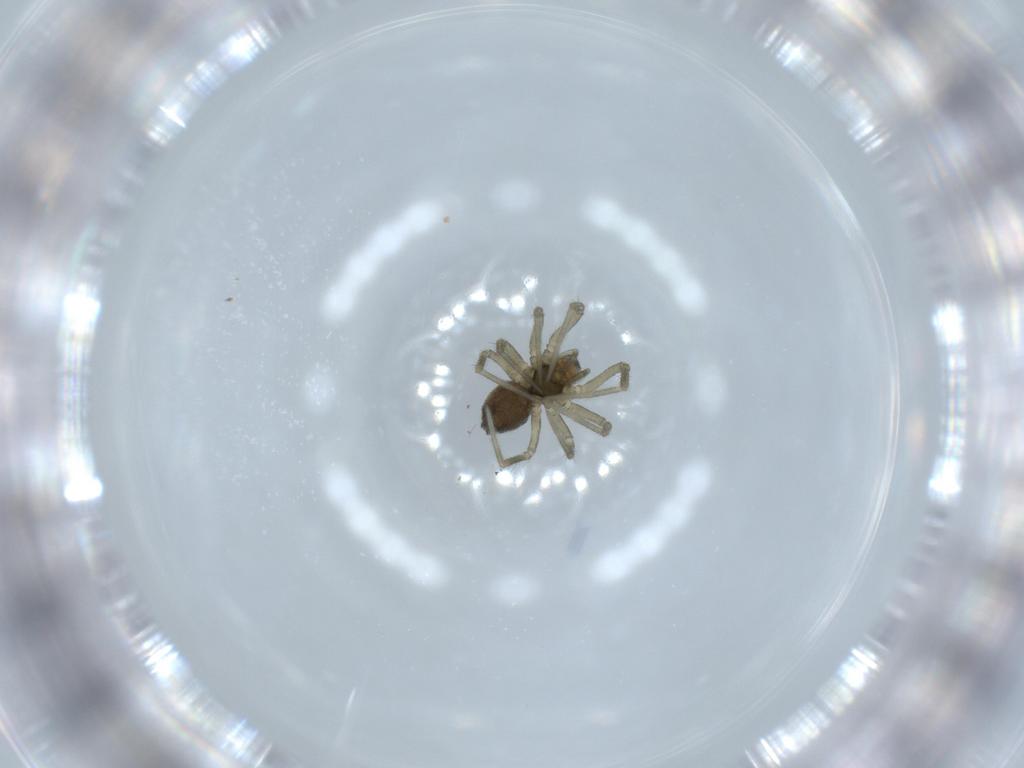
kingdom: Animalia
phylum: Arthropoda
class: Arachnida
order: Araneae
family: Linyphiidae
